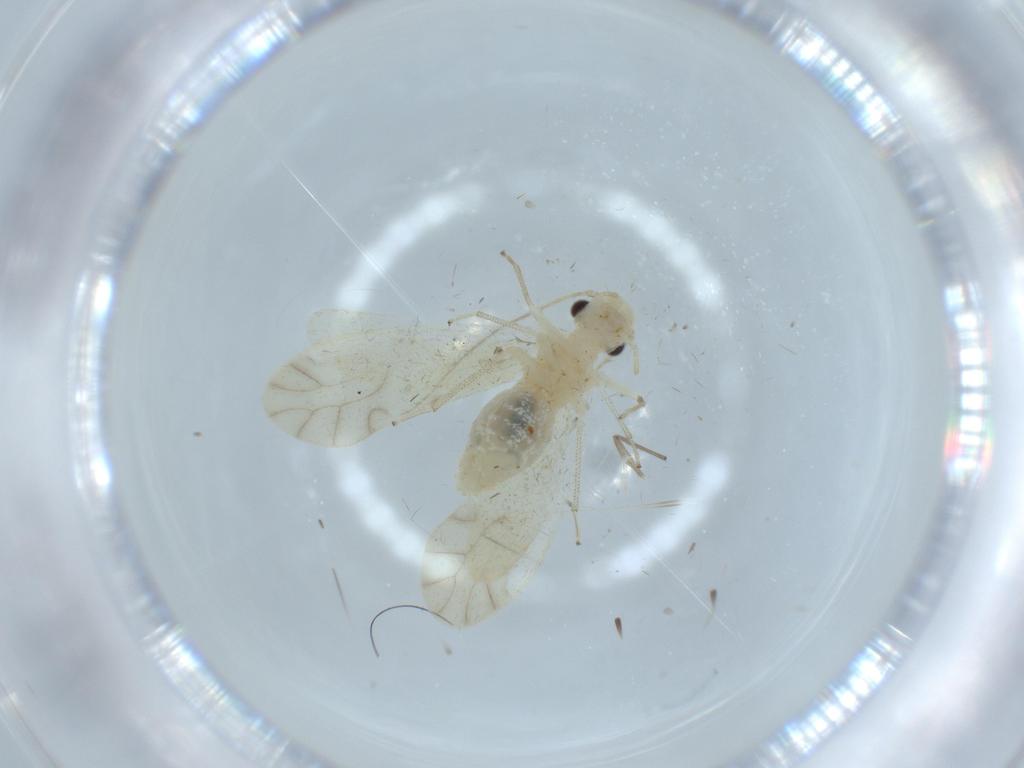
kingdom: Animalia
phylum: Arthropoda
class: Insecta
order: Psocodea
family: Caeciliusidae
